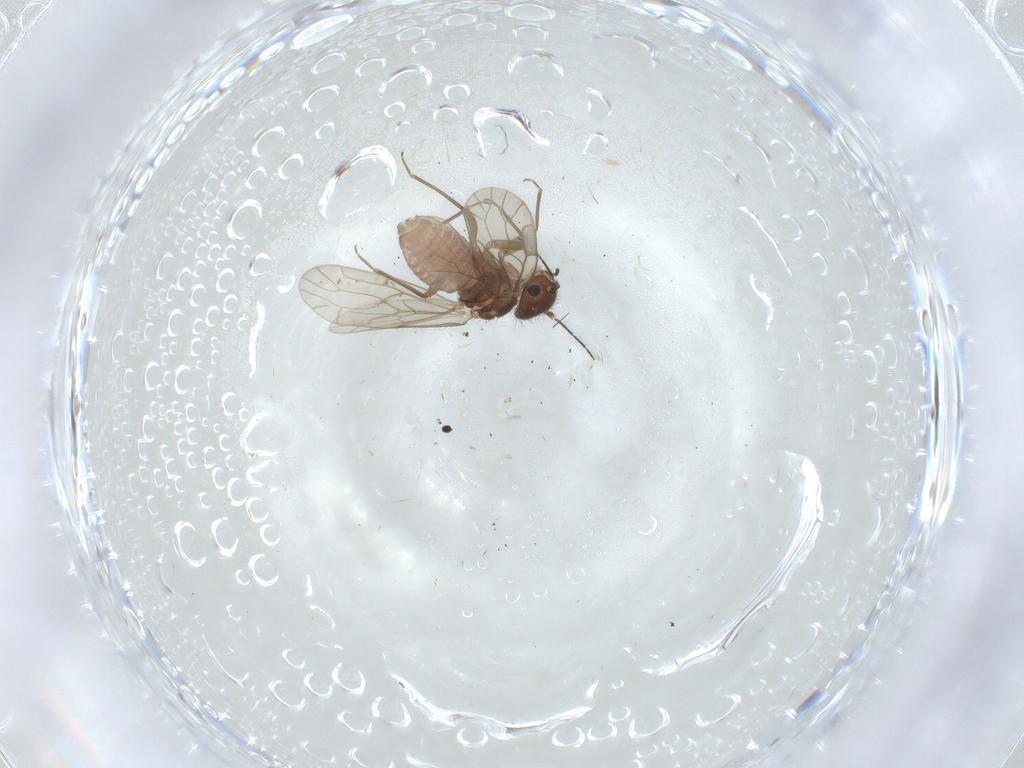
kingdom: Animalia
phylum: Arthropoda
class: Insecta
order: Psocodea
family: Ectopsocidae
